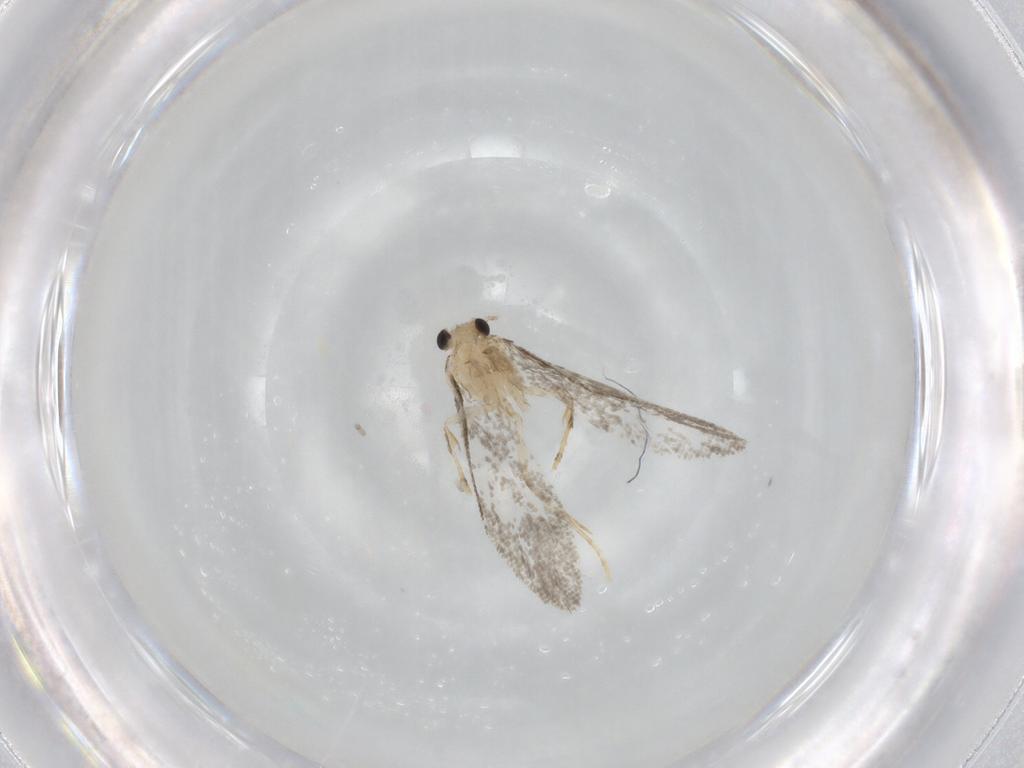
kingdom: Animalia
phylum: Arthropoda
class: Insecta
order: Lepidoptera
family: Psychidae
